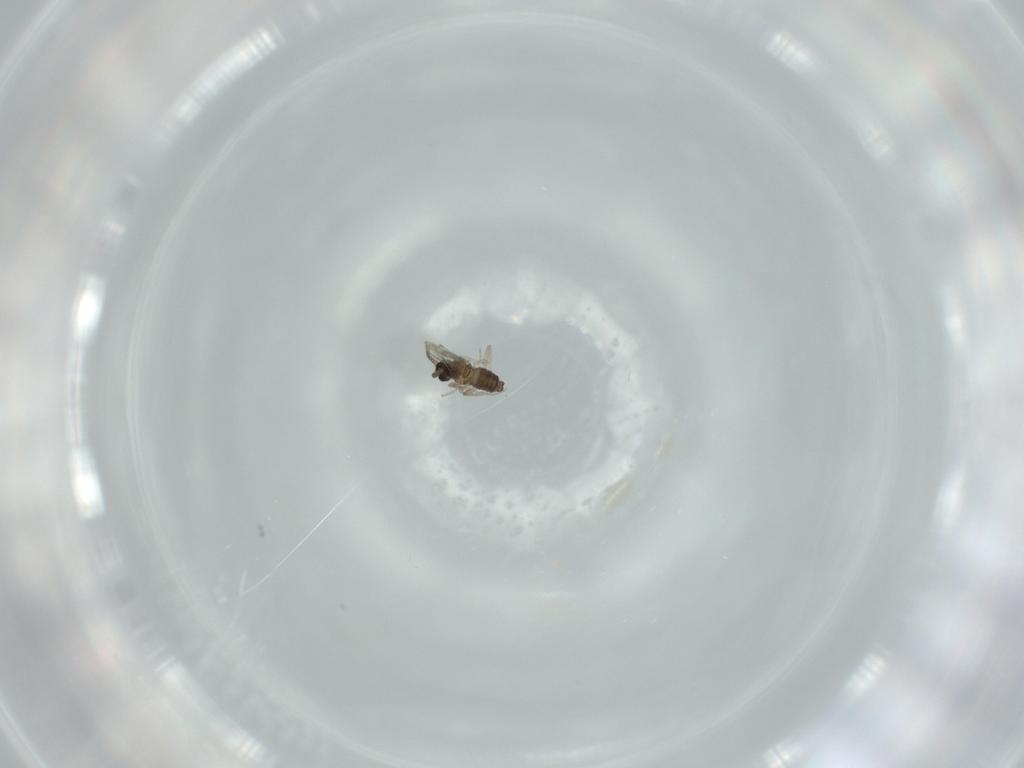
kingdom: Animalia
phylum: Arthropoda
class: Insecta
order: Diptera
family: Cecidomyiidae
